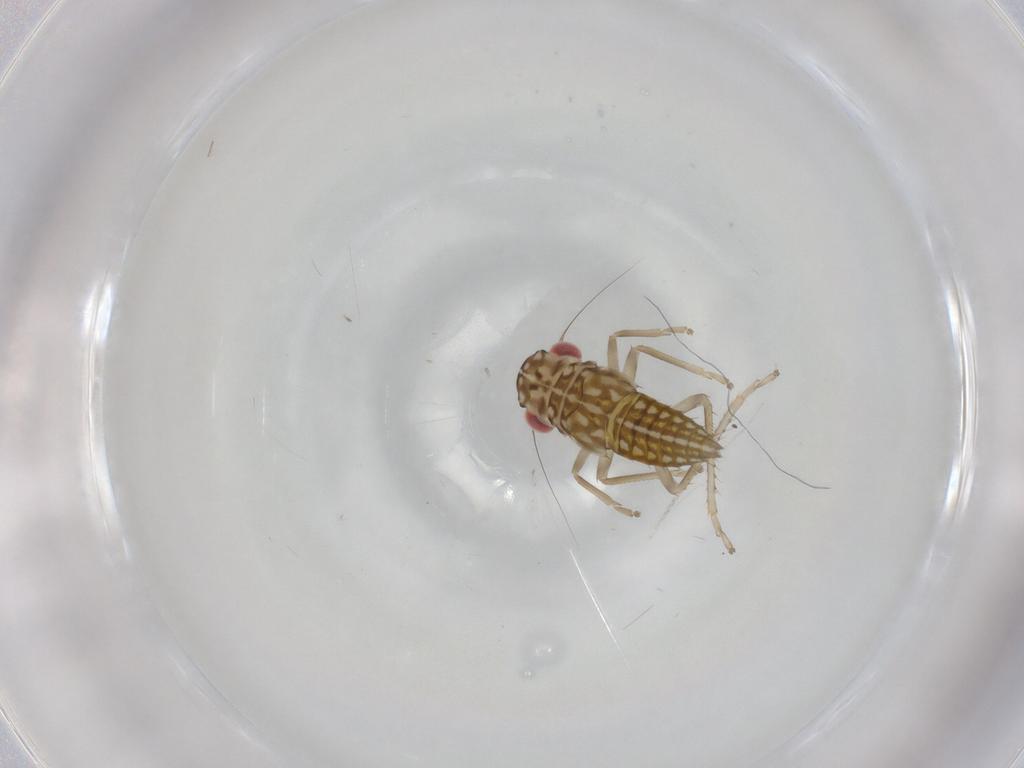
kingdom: Animalia
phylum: Arthropoda
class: Insecta
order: Hemiptera
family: Cicadellidae
